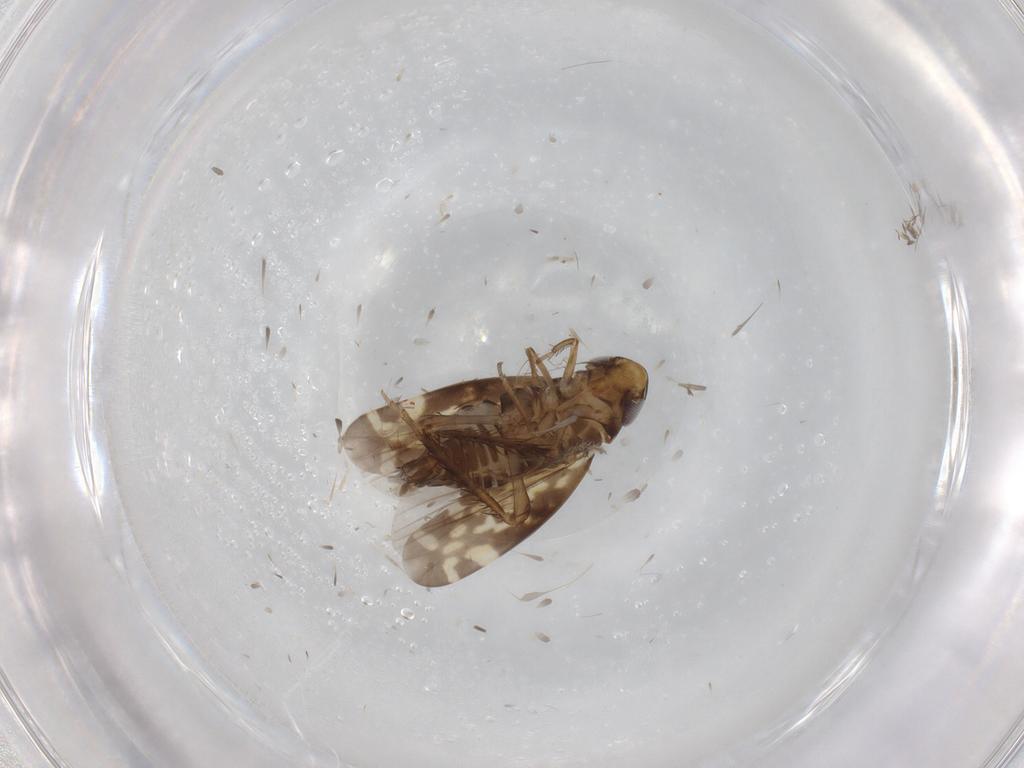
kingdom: Animalia
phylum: Arthropoda
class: Insecta
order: Hemiptera
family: Cicadellidae
